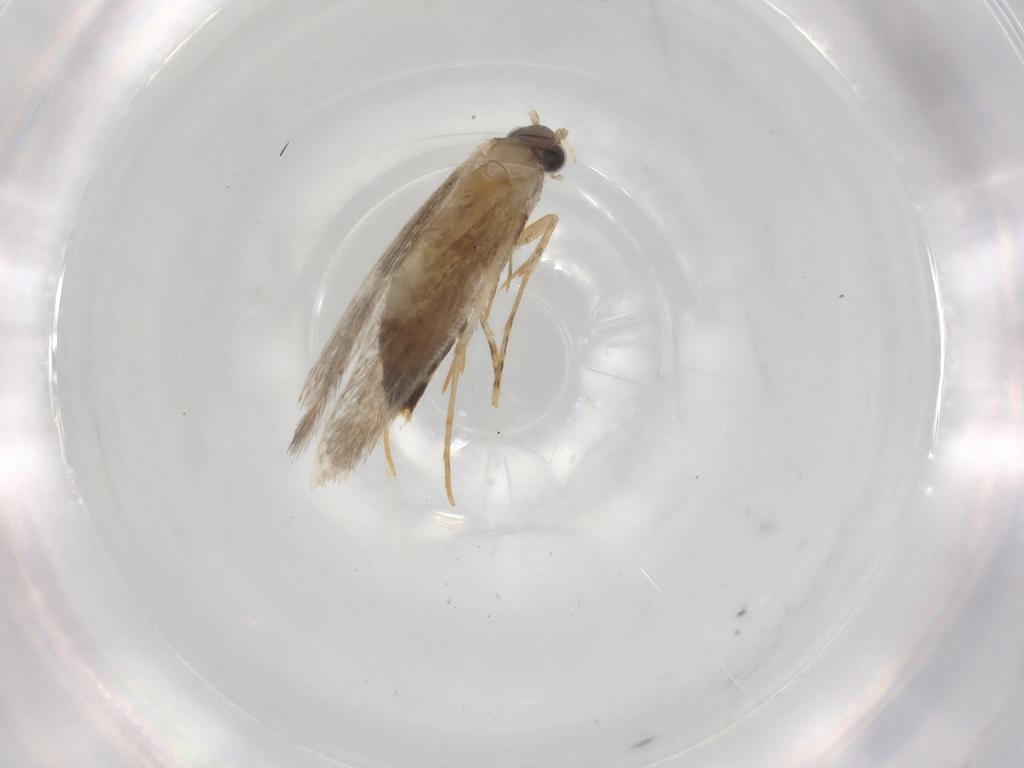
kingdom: Animalia
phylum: Arthropoda
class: Insecta
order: Lepidoptera
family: Tineidae
